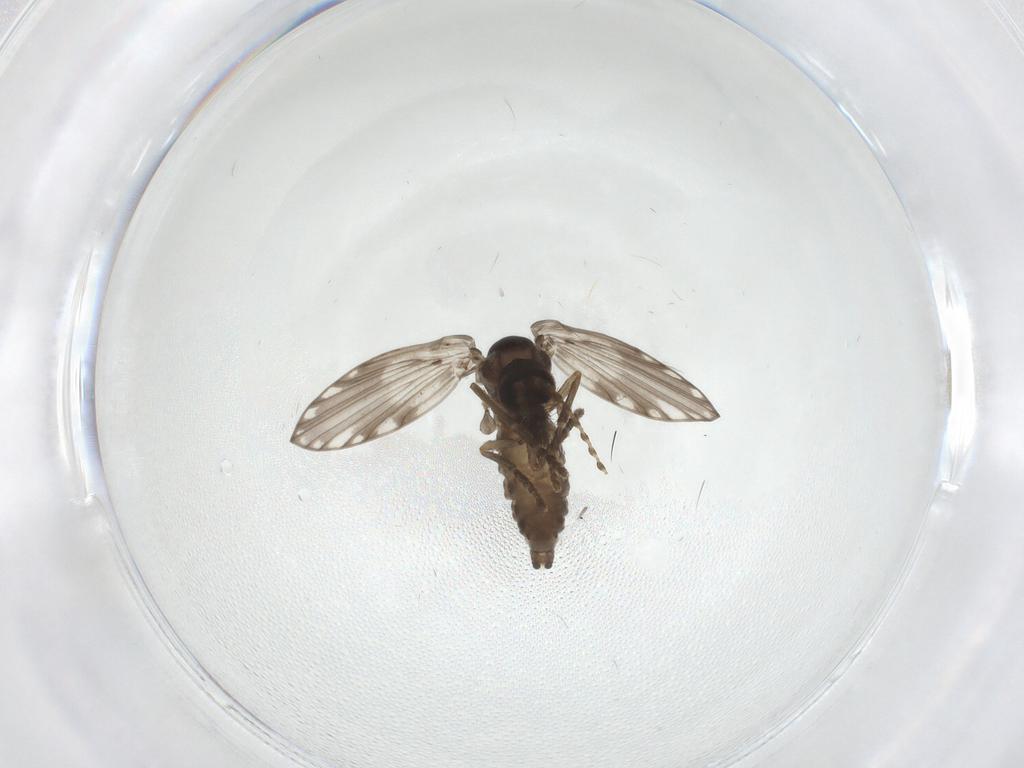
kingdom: Animalia
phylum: Arthropoda
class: Insecta
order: Diptera
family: Psychodidae
